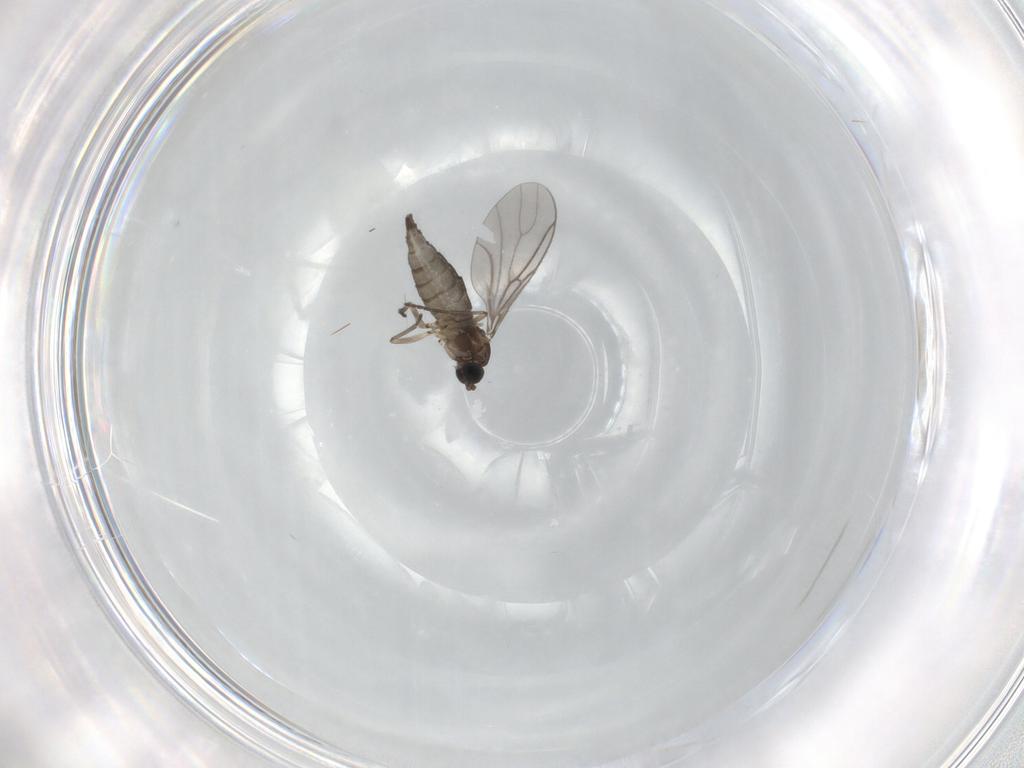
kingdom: Animalia
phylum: Arthropoda
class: Insecta
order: Diptera
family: Sciaridae
